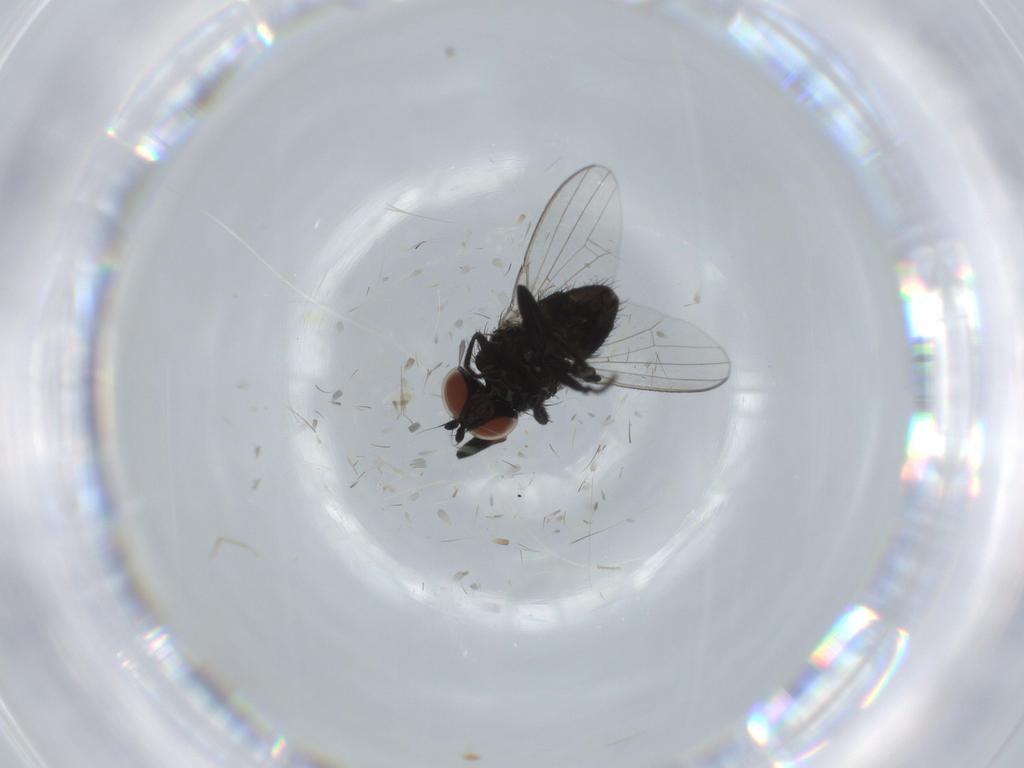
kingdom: Animalia
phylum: Arthropoda
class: Insecta
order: Diptera
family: Milichiidae
